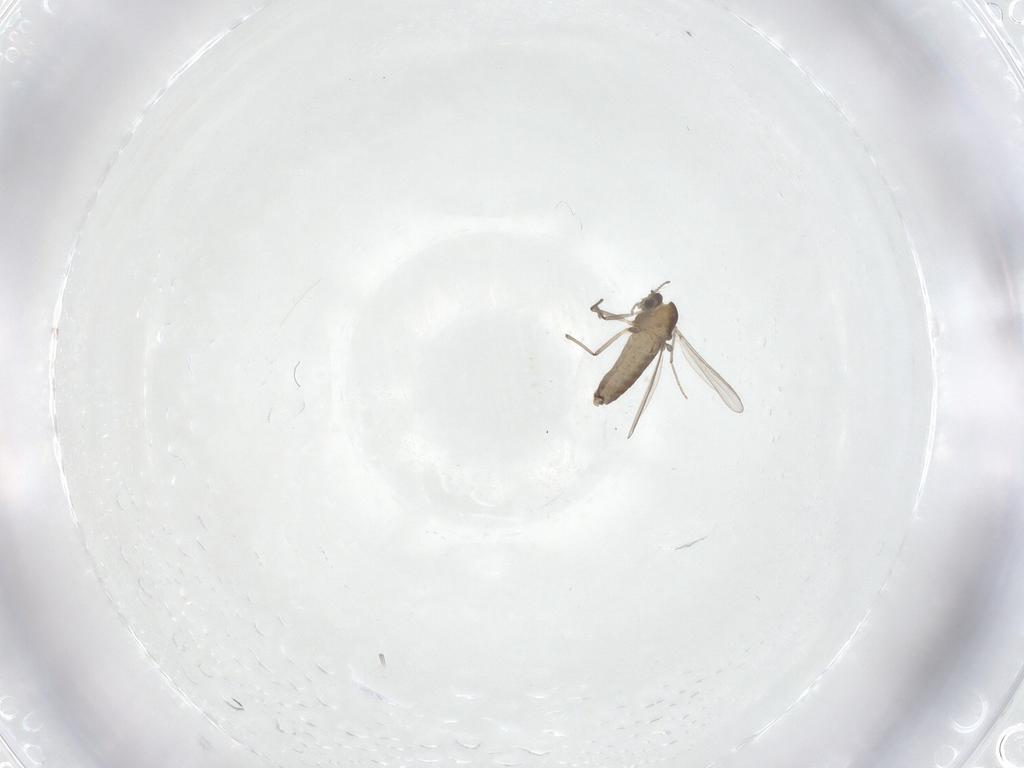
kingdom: Animalia
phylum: Arthropoda
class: Insecta
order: Diptera
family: Chironomidae
